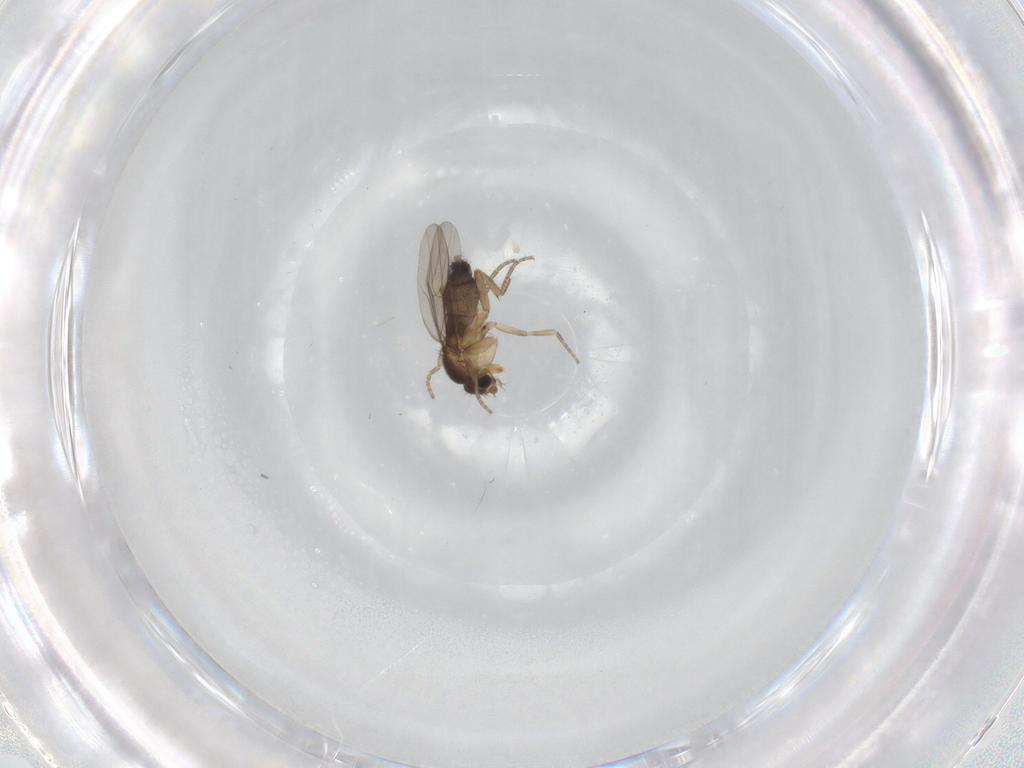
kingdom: Animalia
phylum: Arthropoda
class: Insecta
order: Diptera
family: Phoridae
